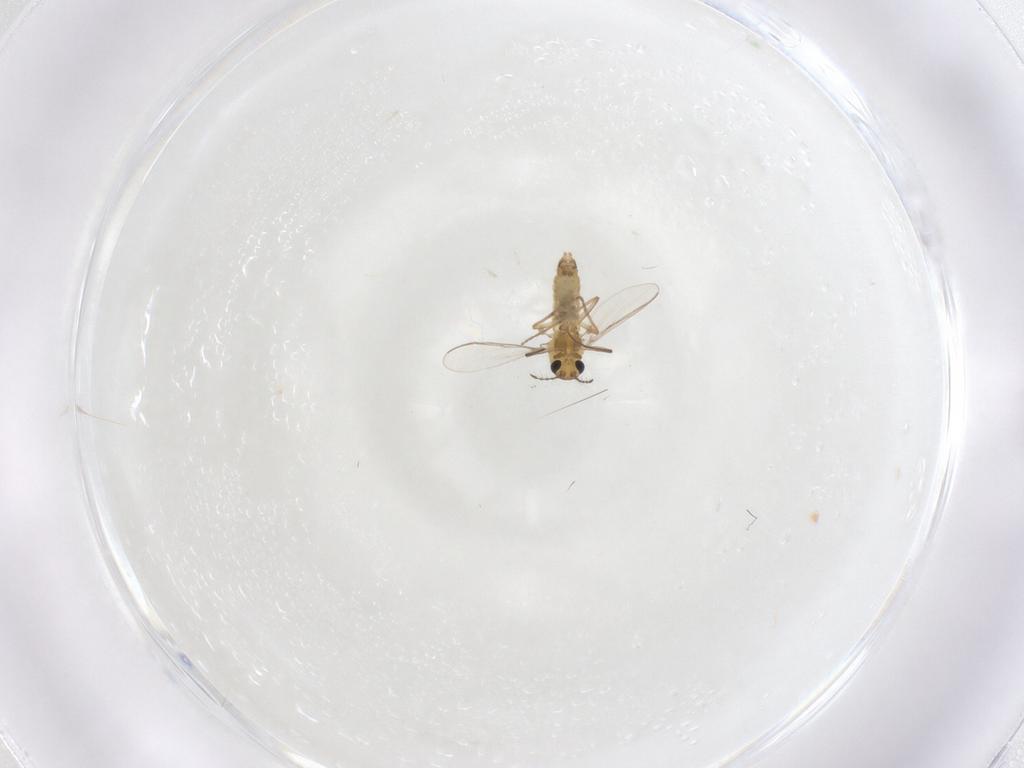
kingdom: Animalia
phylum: Arthropoda
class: Insecta
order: Diptera
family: Chironomidae
